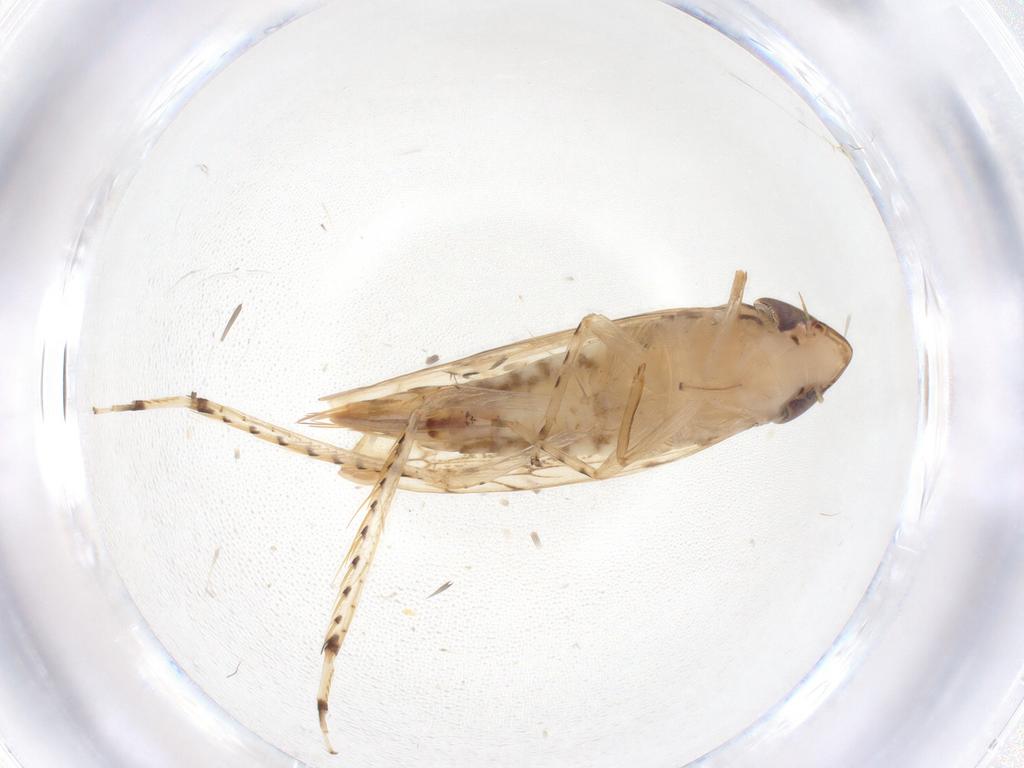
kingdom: Animalia
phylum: Arthropoda
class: Insecta
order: Hemiptera
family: Cicadellidae
